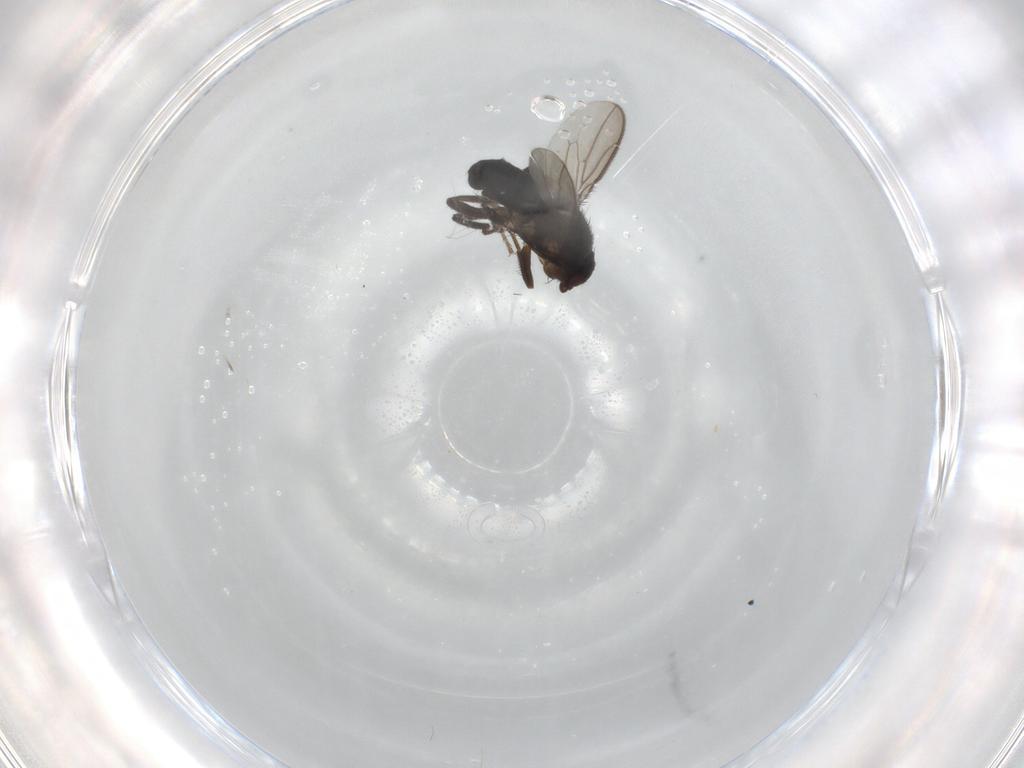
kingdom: Animalia
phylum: Arthropoda
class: Insecta
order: Diptera
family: Sphaeroceridae
